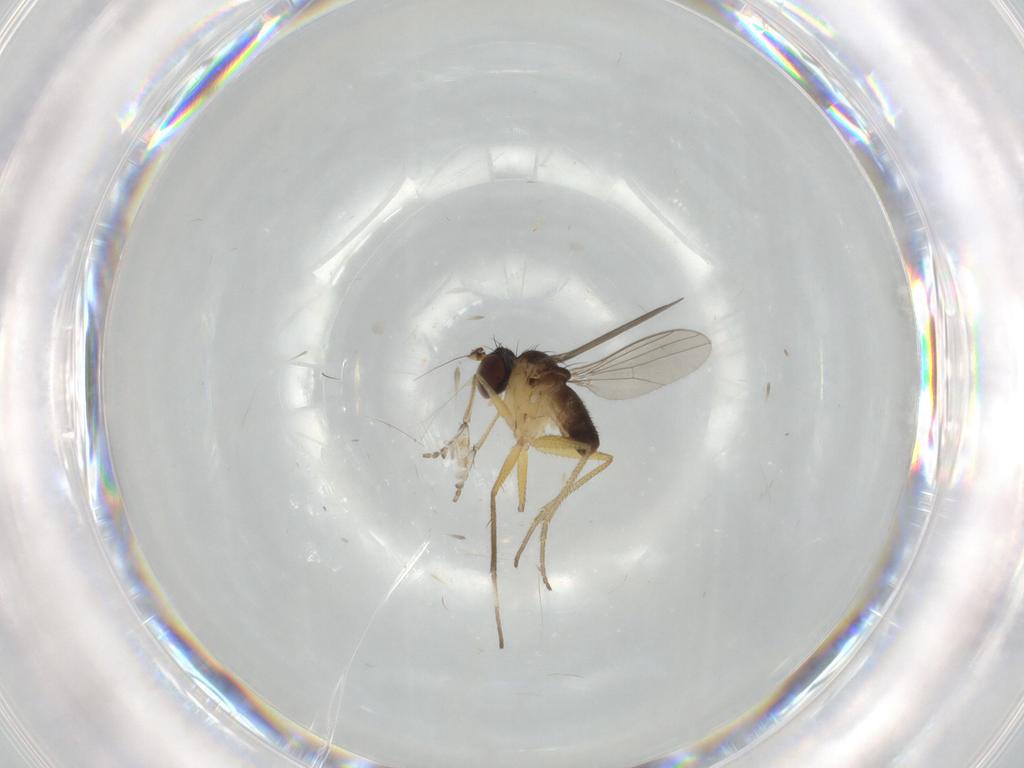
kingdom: Animalia
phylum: Arthropoda
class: Insecta
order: Diptera
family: Dolichopodidae
